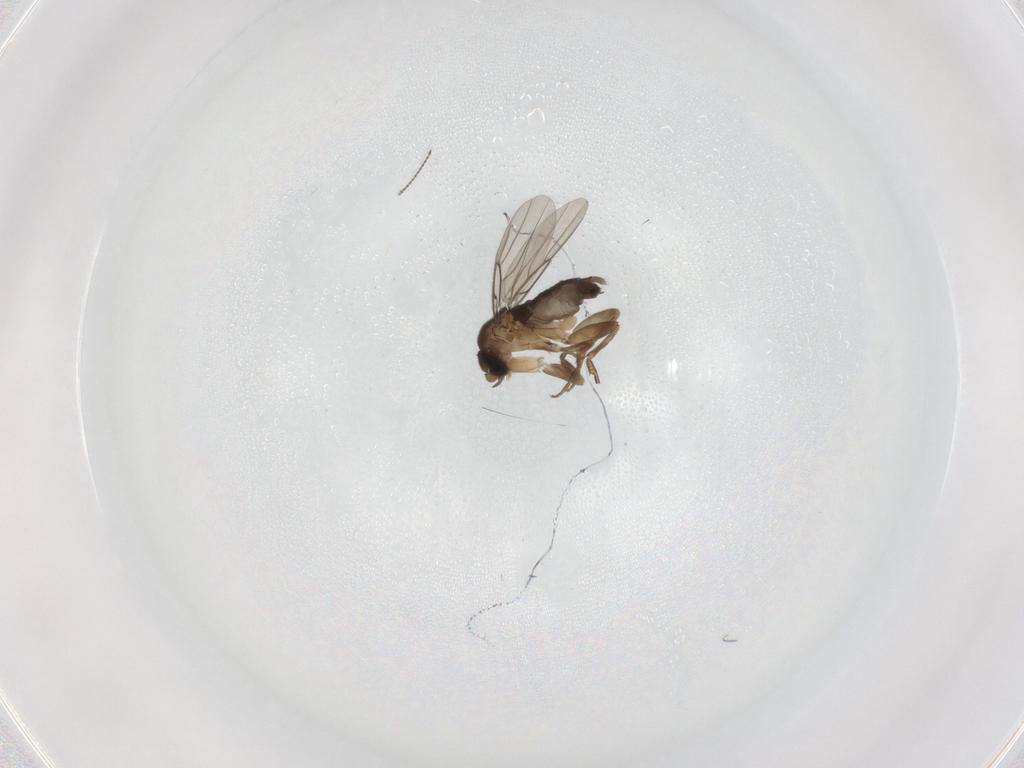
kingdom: Animalia
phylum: Arthropoda
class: Insecta
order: Diptera
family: Phoridae
